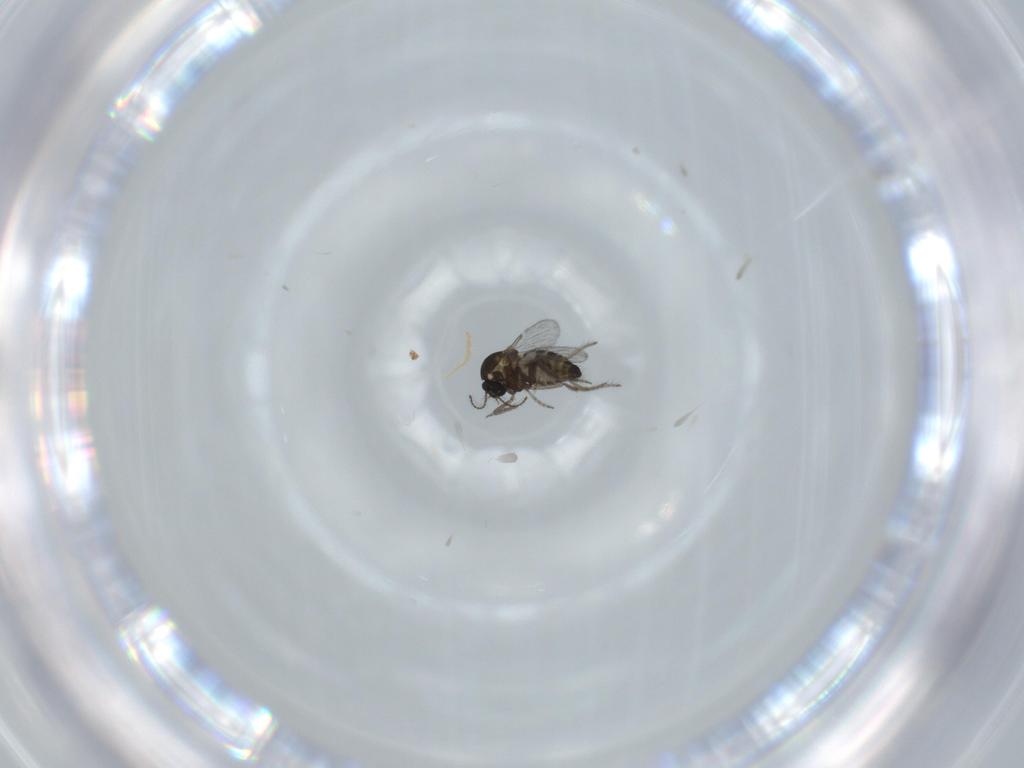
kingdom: Animalia
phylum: Arthropoda
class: Insecta
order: Diptera
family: Ceratopogonidae
